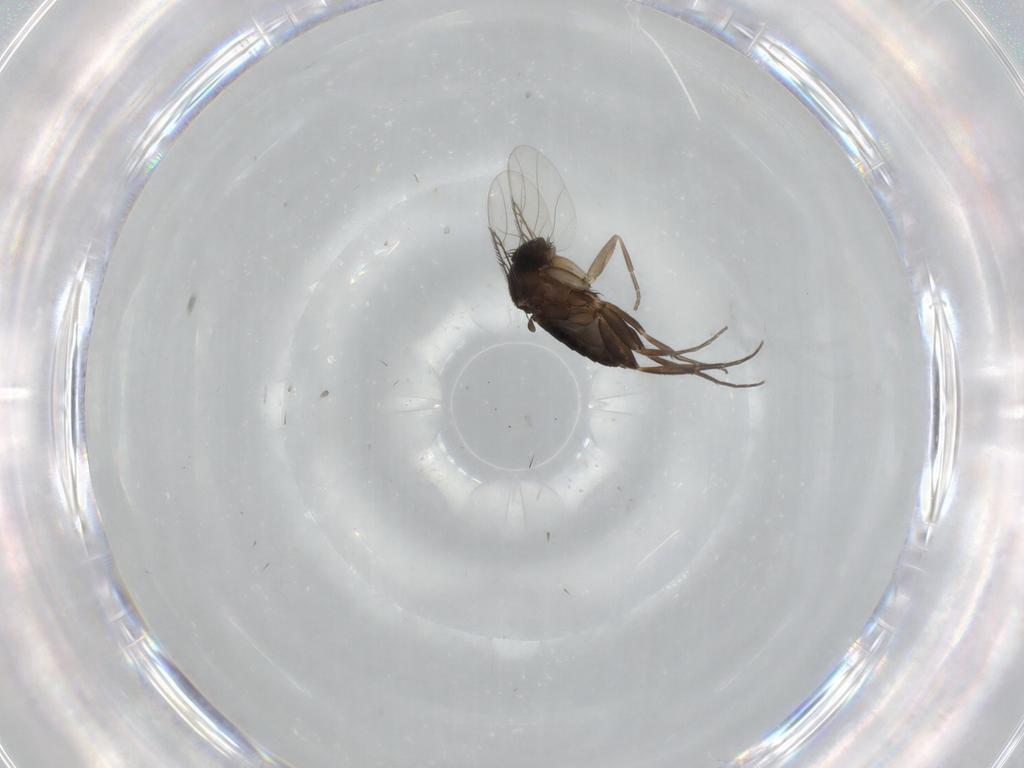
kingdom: Animalia
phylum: Arthropoda
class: Insecta
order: Diptera
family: Phoridae
